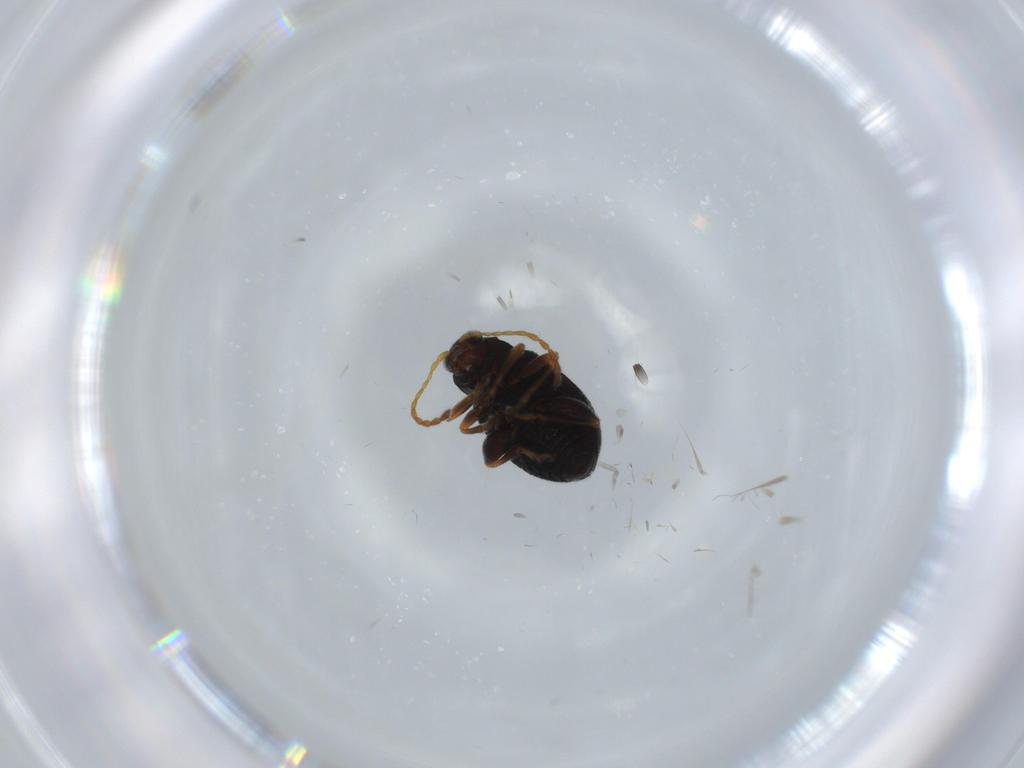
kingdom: Animalia
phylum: Arthropoda
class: Insecta
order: Coleoptera
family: Chrysomelidae
